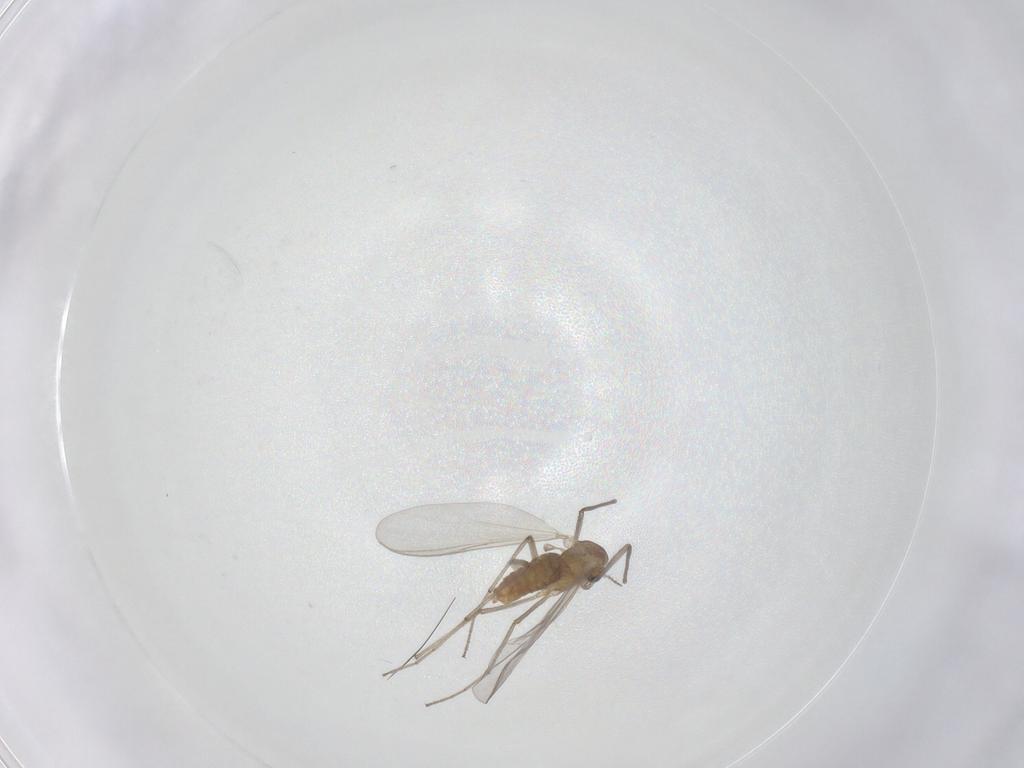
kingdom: Animalia
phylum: Arthropoda
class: Insecta
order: Diptera
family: Chironomidae
